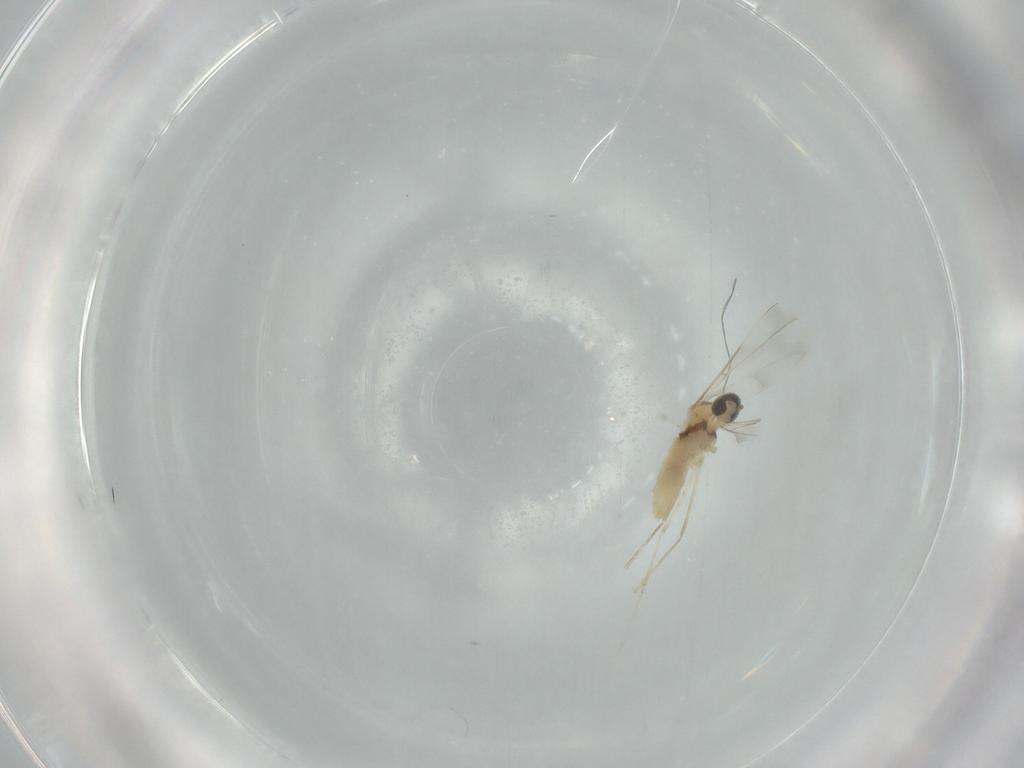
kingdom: Animalia
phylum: Arthropoda
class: Insecta
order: Diptera
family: Cecidomyiidae
